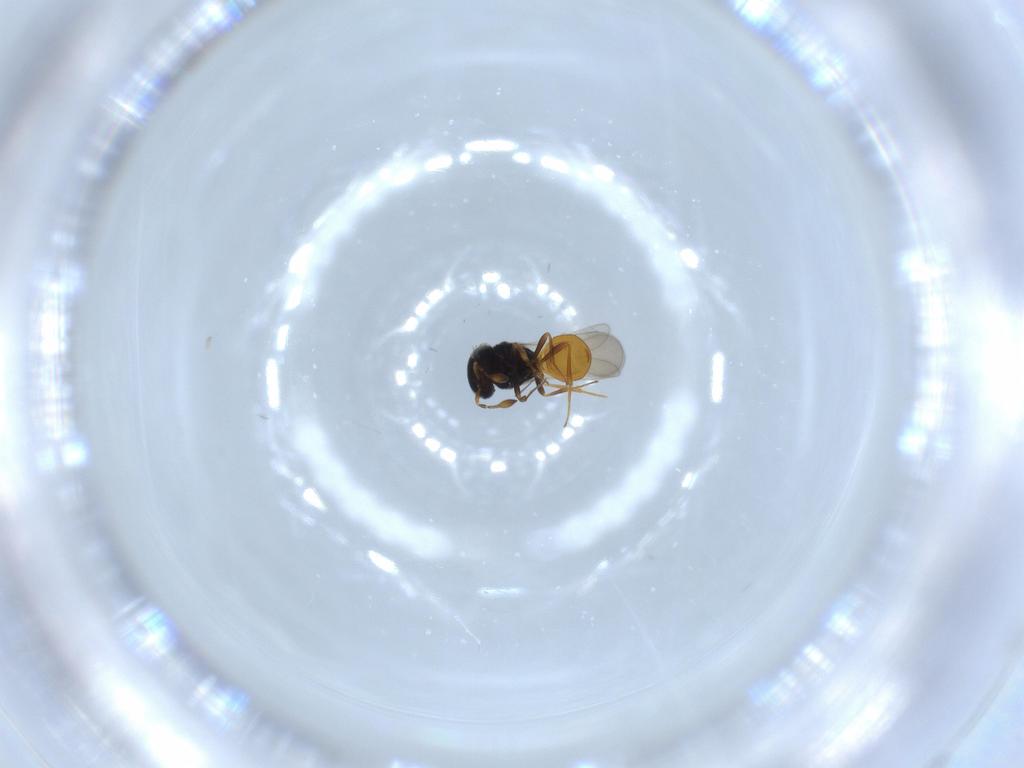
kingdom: Animalia
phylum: Arthropoda
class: Insecta
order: Hymenoptera
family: Scelionidae
